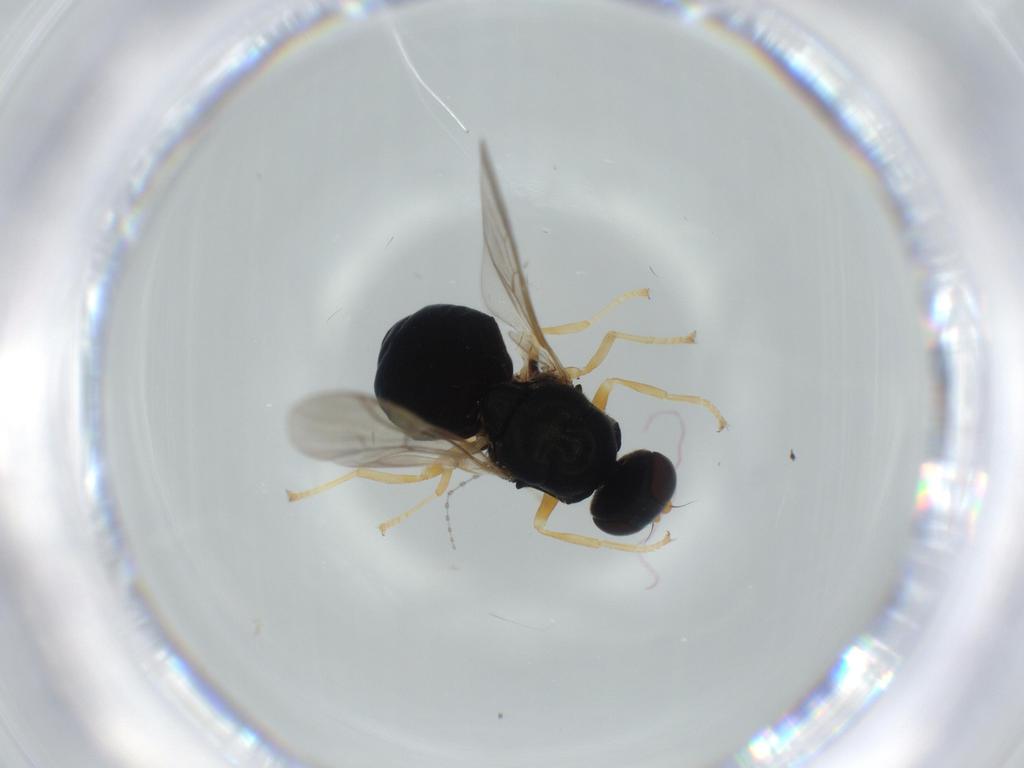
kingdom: Animalia
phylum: Arthropoda
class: Insecta
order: Diptera
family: Stratiomyidae
